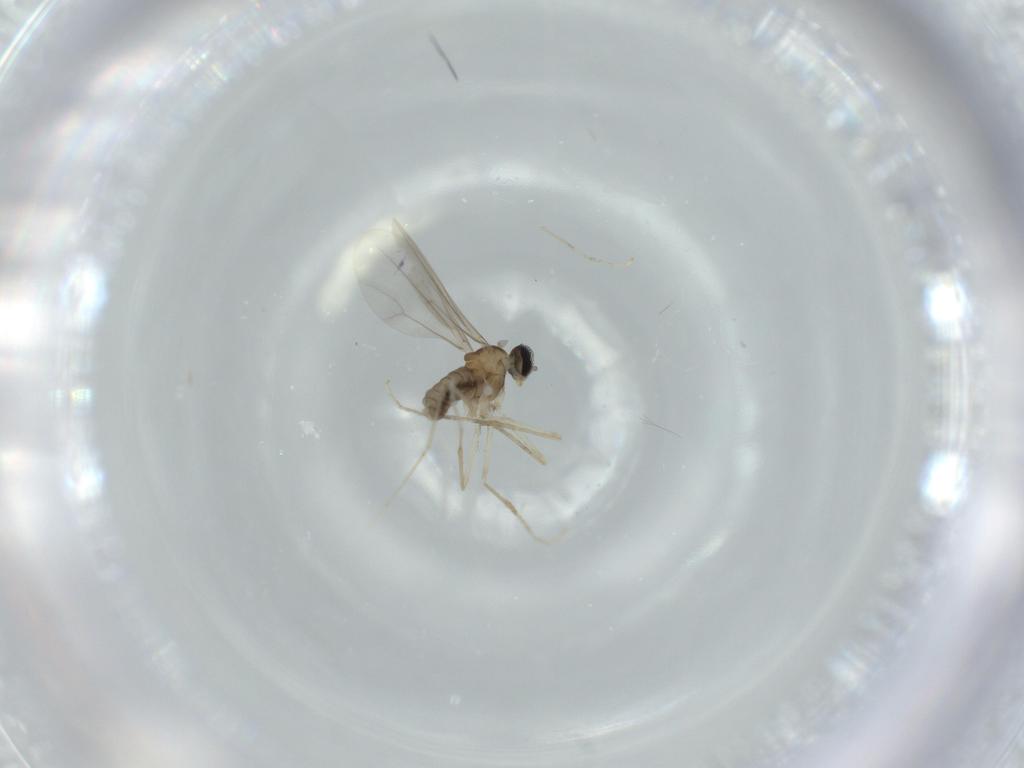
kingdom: Animalia
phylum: Arthropoda
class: Insecta
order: Diptera
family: Cecidomyiidae
